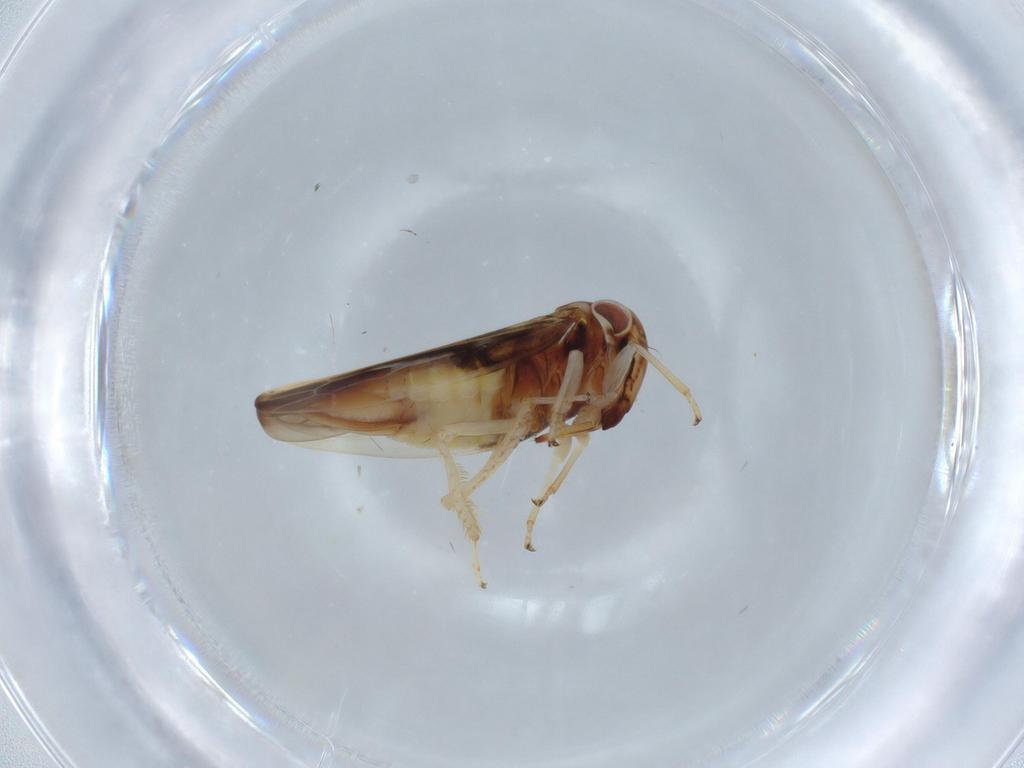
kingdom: Animalia
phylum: Arthropoda
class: Insecta
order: Hemiptera
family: Cicadellidae
